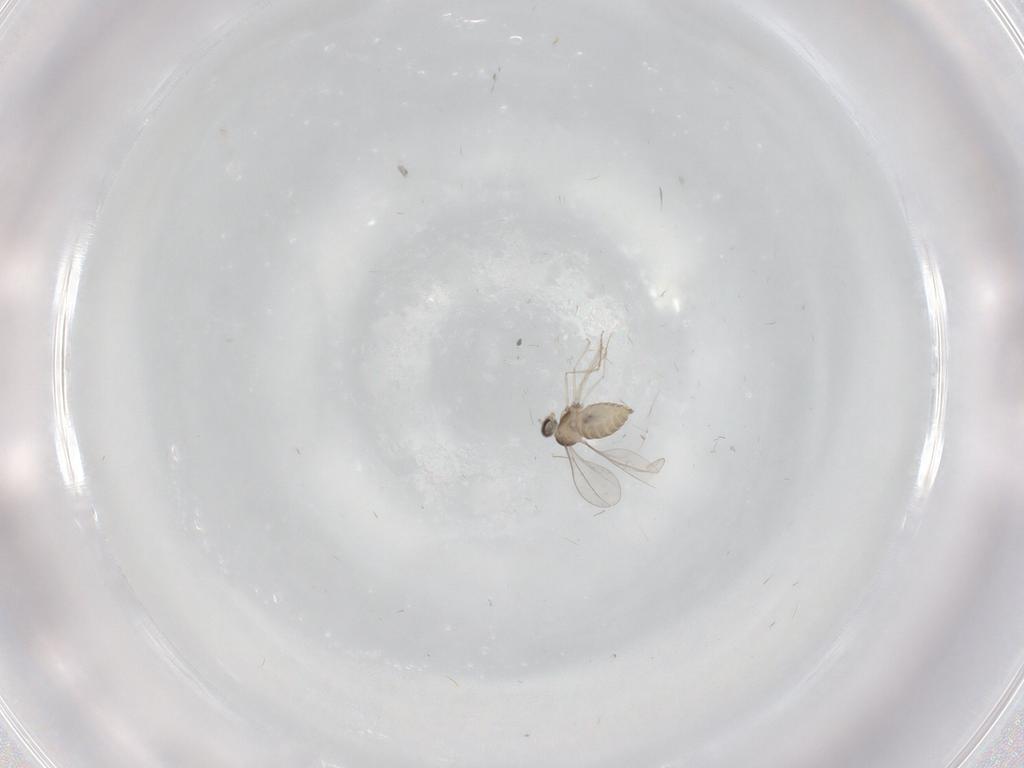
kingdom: Animalia
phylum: Arthropoda
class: Insecta
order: Diptera
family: Cecidomyiidae
